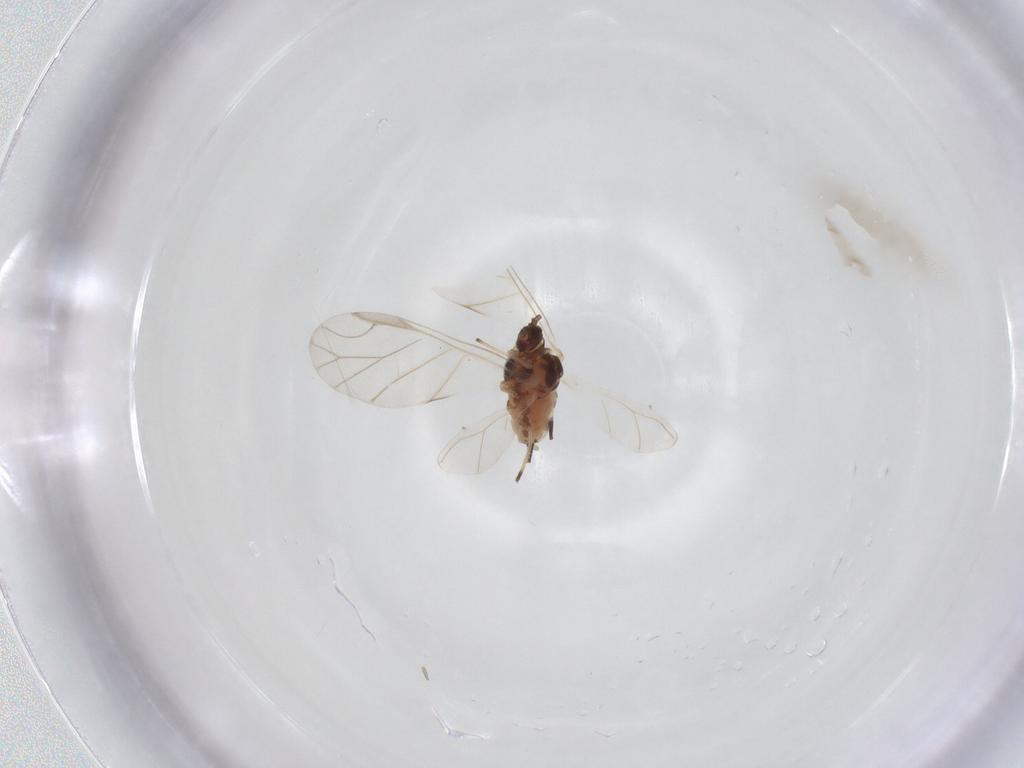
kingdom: Animalia
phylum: Arthropoda
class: Insecta
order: Hemiptera
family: Aphididae
